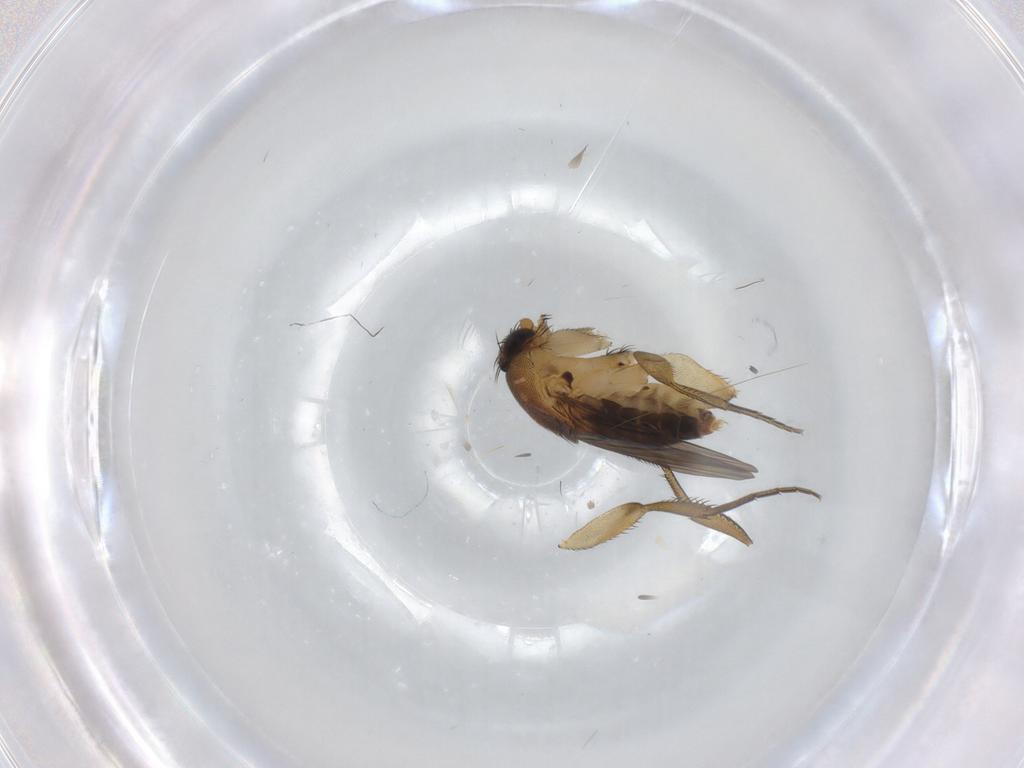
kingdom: Animalia
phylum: Arthropoda
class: Insecta
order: Diptera
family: Phoridae
